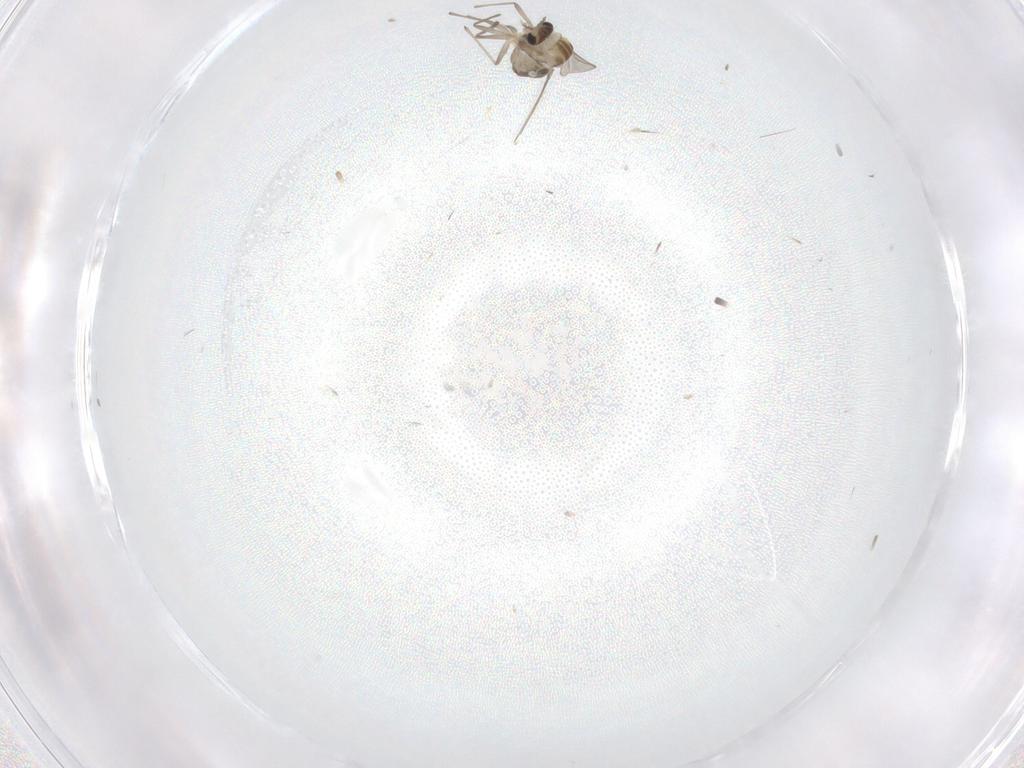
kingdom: Animalia
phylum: Arthropoda
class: Insecta
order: Diptera
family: Chironomidae
